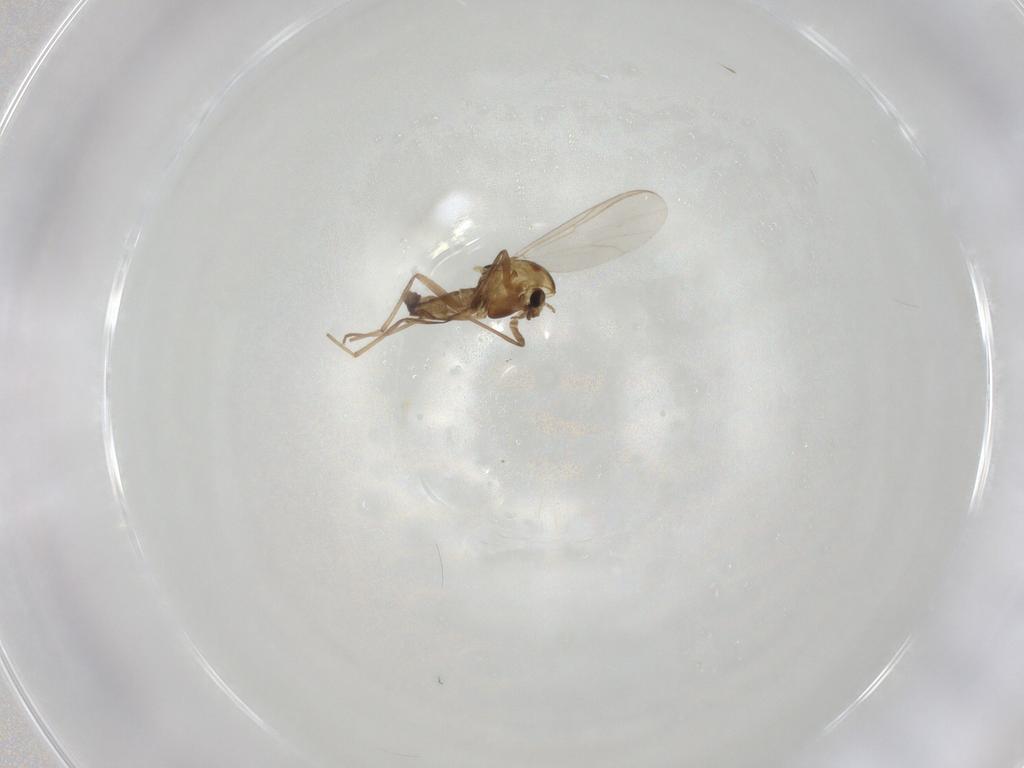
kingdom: Animalia
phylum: Arthropoda
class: Insecta
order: Diptera
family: Chironomidae
